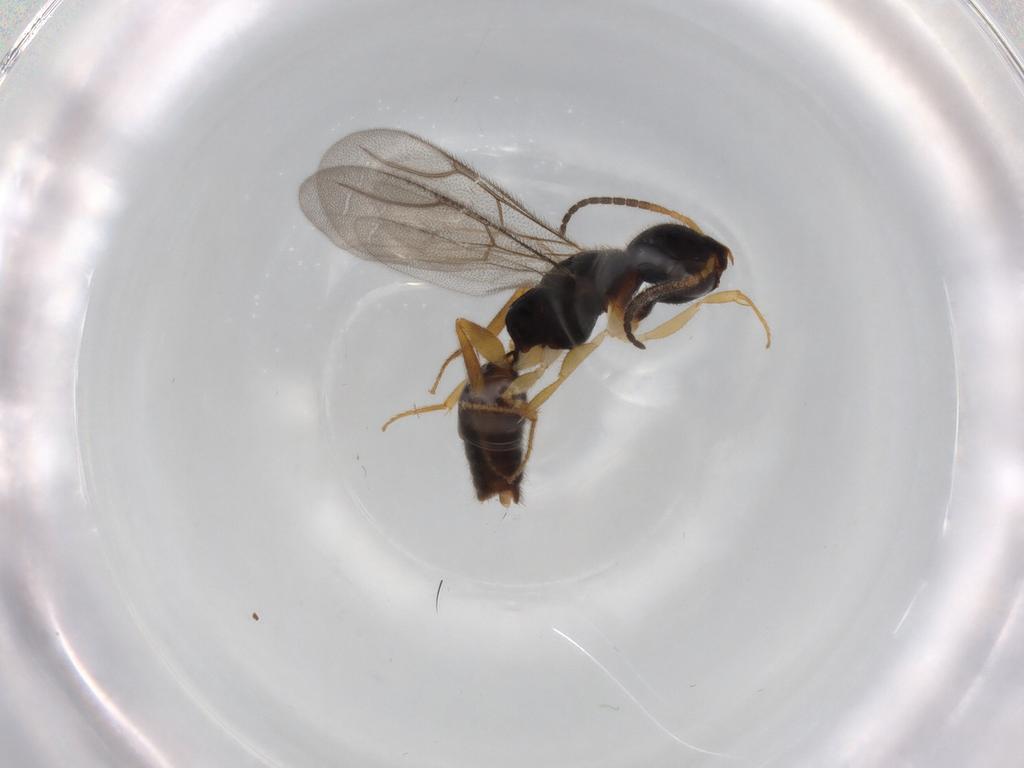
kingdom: Animalia
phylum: Arthropoda
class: Insecta
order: Hymenoptera
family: Bethylidae
